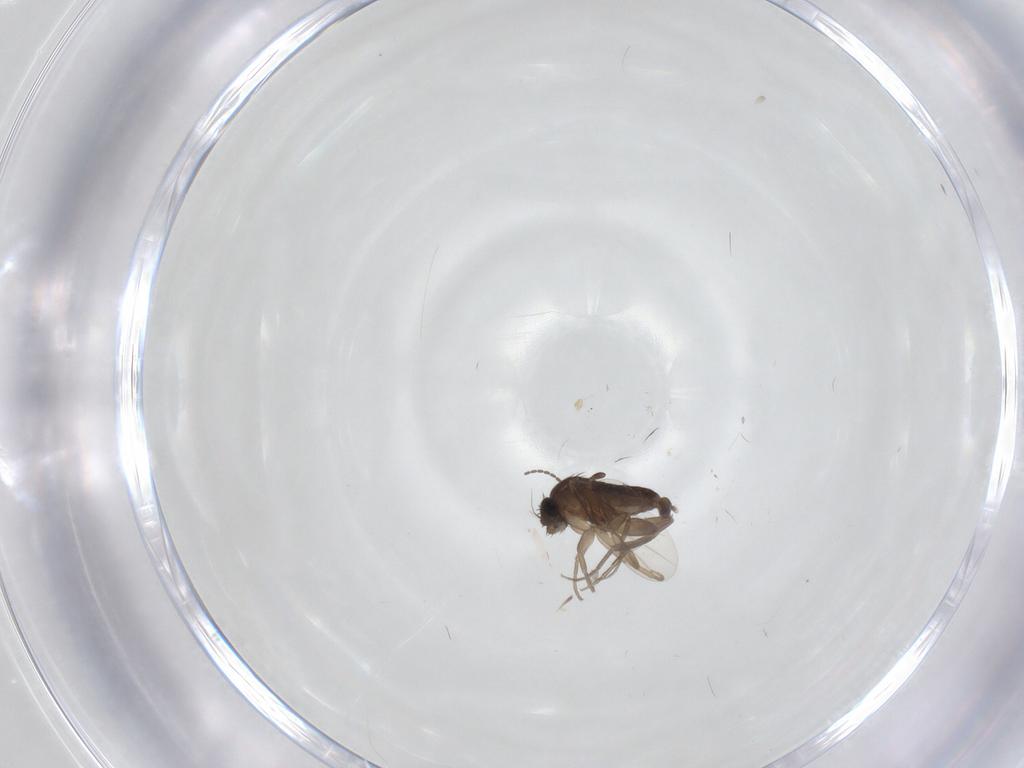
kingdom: Animalia
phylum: Arthropoda
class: Insecta
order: Diptera
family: Phoridae
